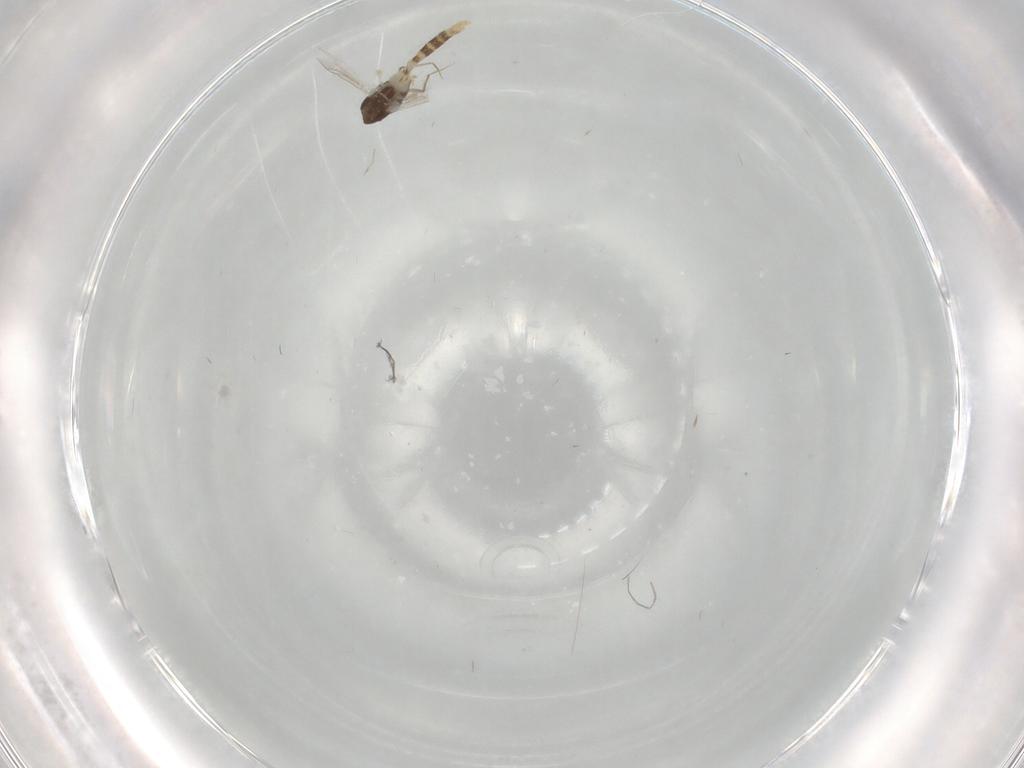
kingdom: Animalia
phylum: Arthropoda
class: Insecta
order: Diptera
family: Chironomidae
